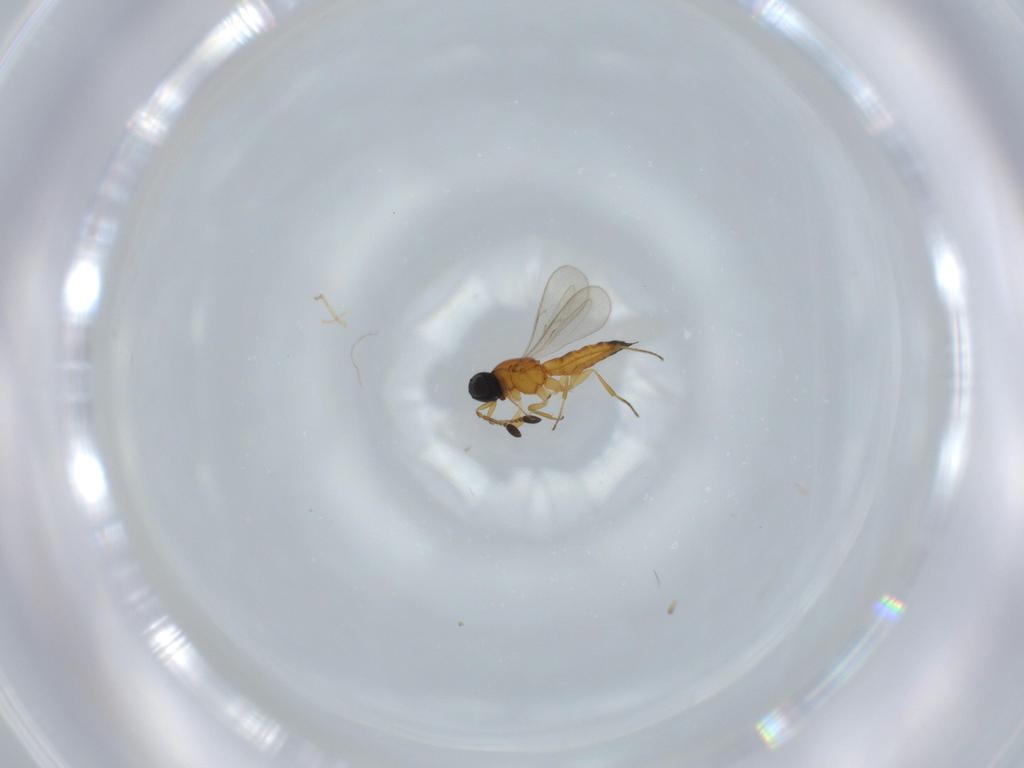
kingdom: Animalia
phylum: Arthropoda
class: Insecta
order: Hymenoptera
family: Scelionidae
